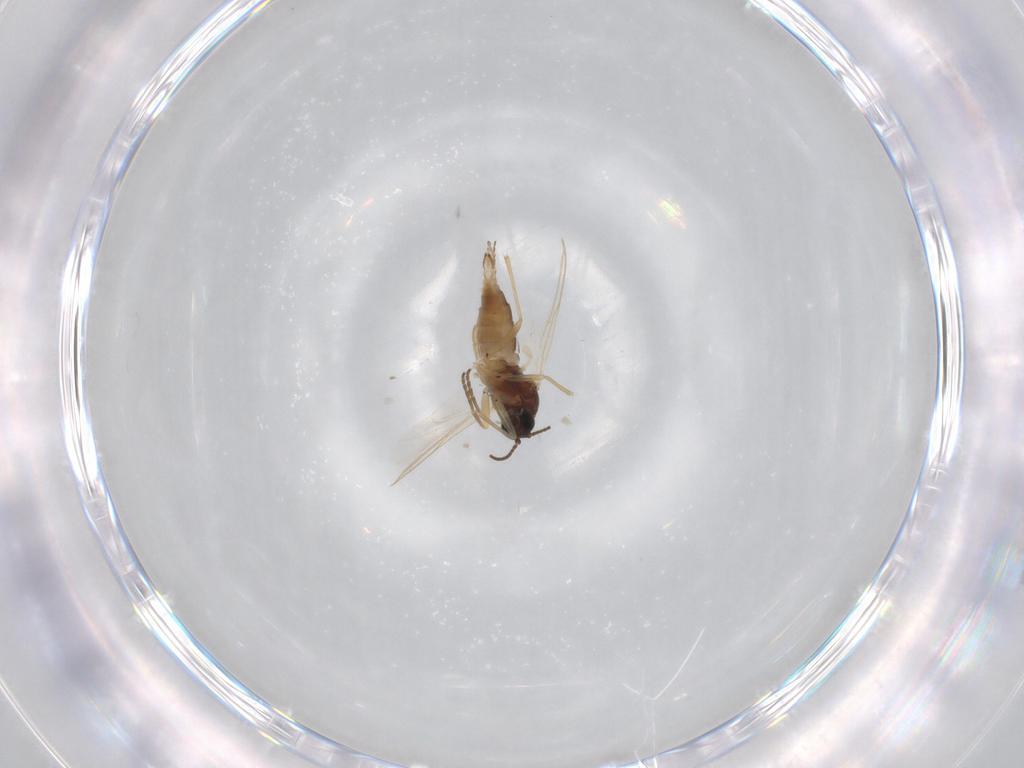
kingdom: Animalia
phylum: Arthropoda
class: Insecta
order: Diptera
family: Sciaridae
